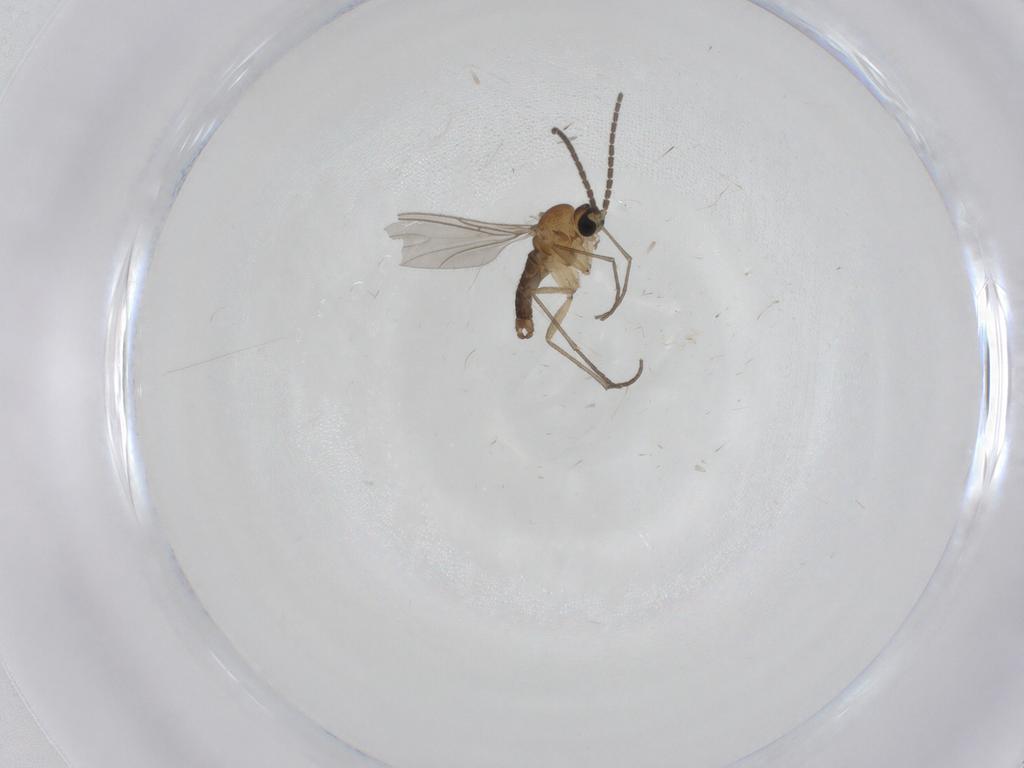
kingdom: Animalia
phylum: Arthropoda
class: Insecta
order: Diptera
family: Sciaridae
